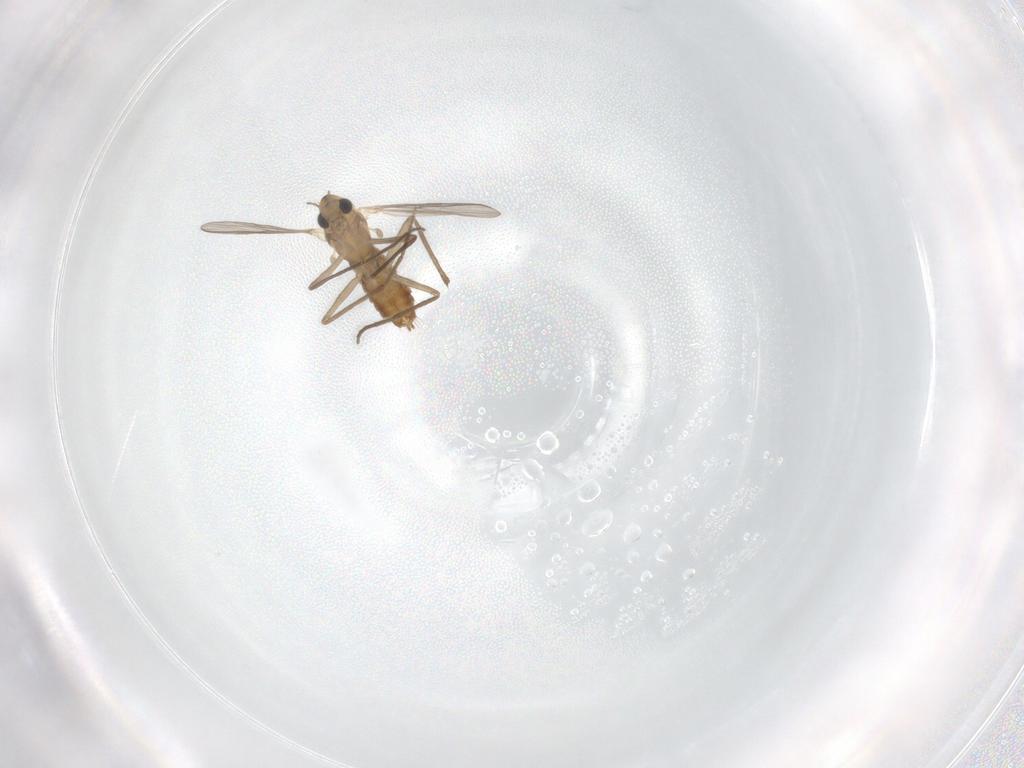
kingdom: Animalia
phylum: Arthropoda
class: Insecta
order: Diptera
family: Chironomidae
